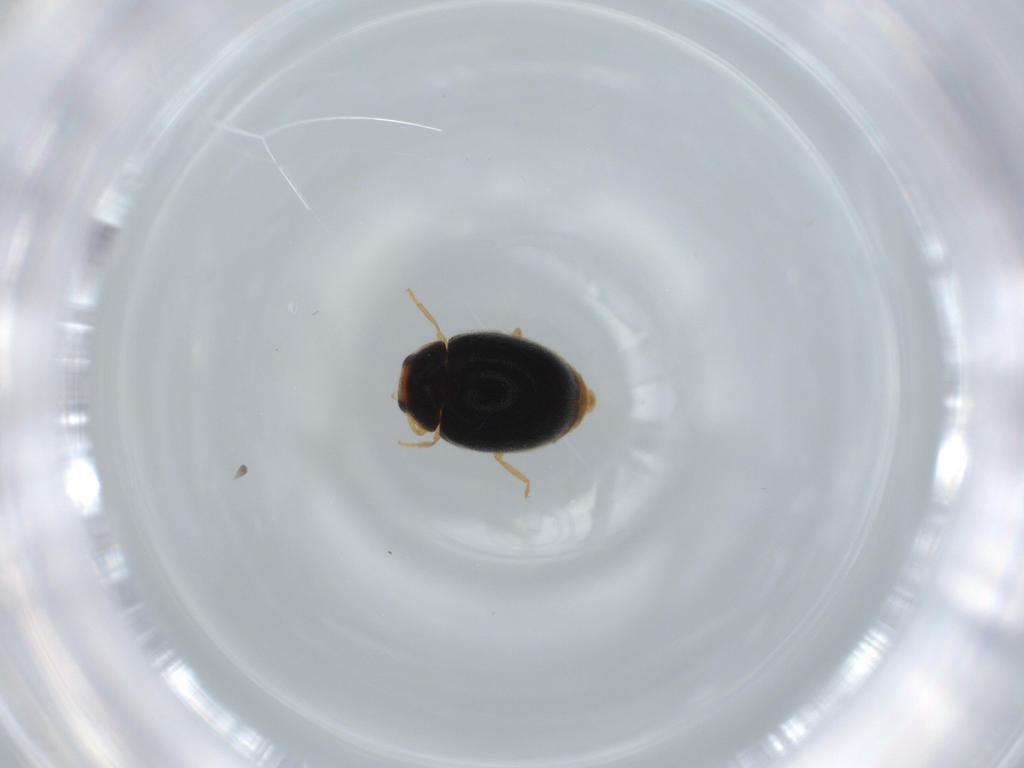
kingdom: Animalia
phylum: Arthropoda
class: Insecta
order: Coleoptera
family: Coccinellidae
